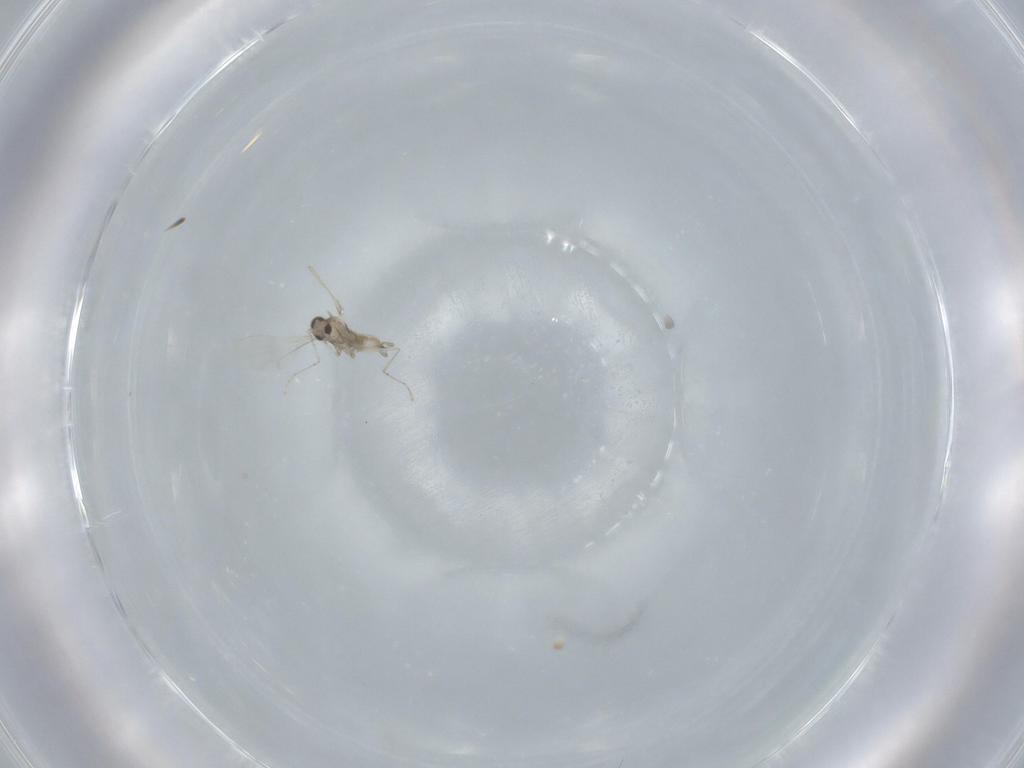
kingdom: Animalia
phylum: Arthropoda
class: Insecta
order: Diptera
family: Cecidomyiidae
